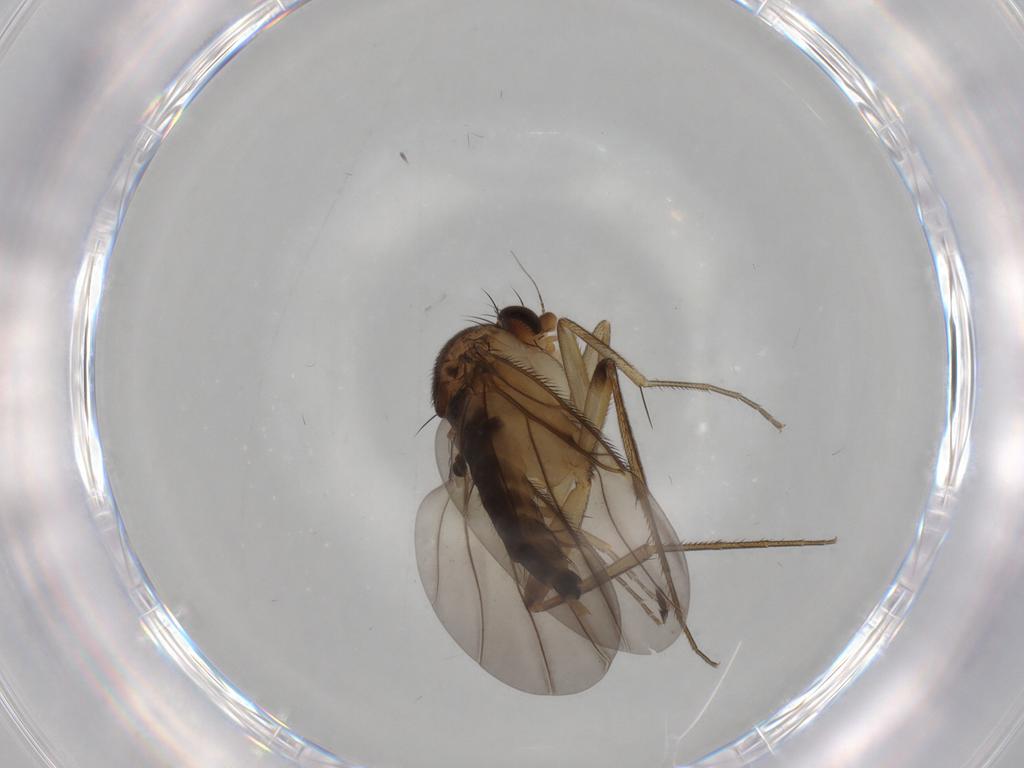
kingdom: Animalia
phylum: Arthropoda
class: Insecta
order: Diptera
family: Phoridae
